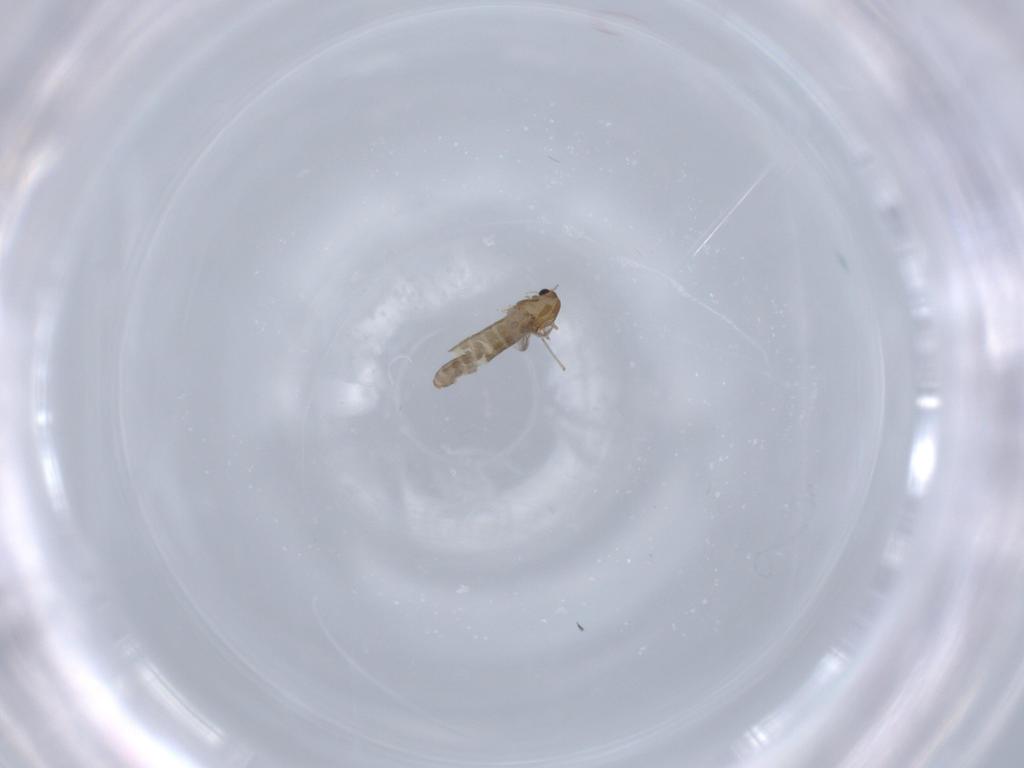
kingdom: Animalia
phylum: Arthropoda
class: Insecta
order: Diptera
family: Chironomidae
